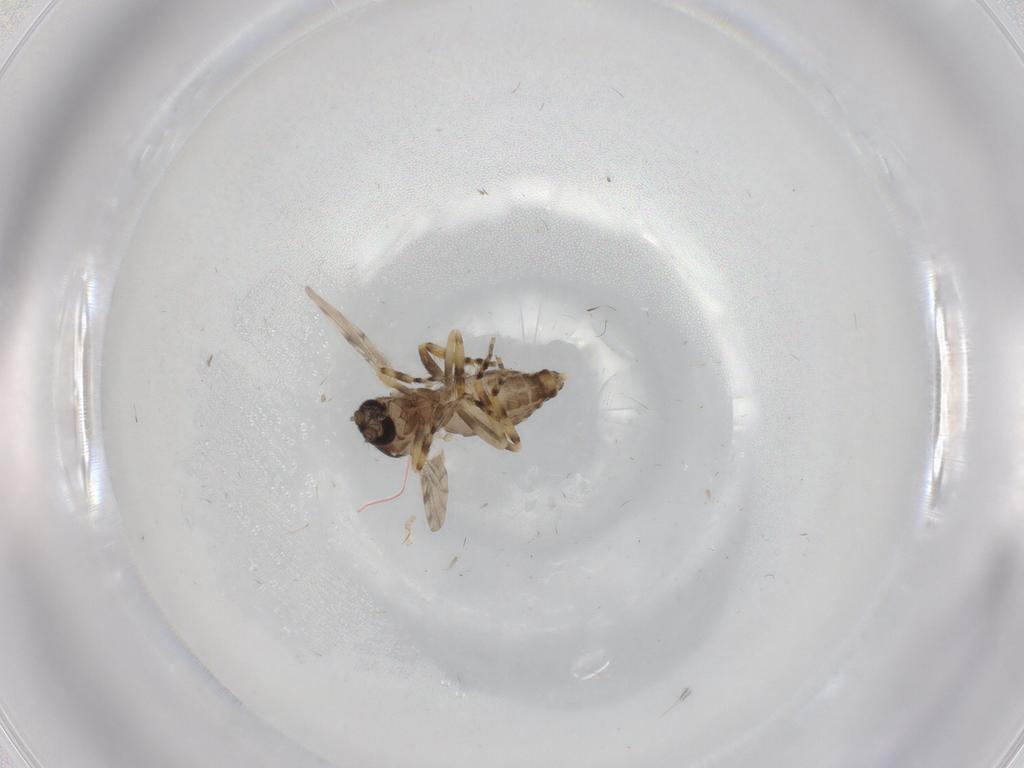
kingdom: Animalia
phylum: Arthropoda
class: Insecta
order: Diptera
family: Ceratopogonidae
